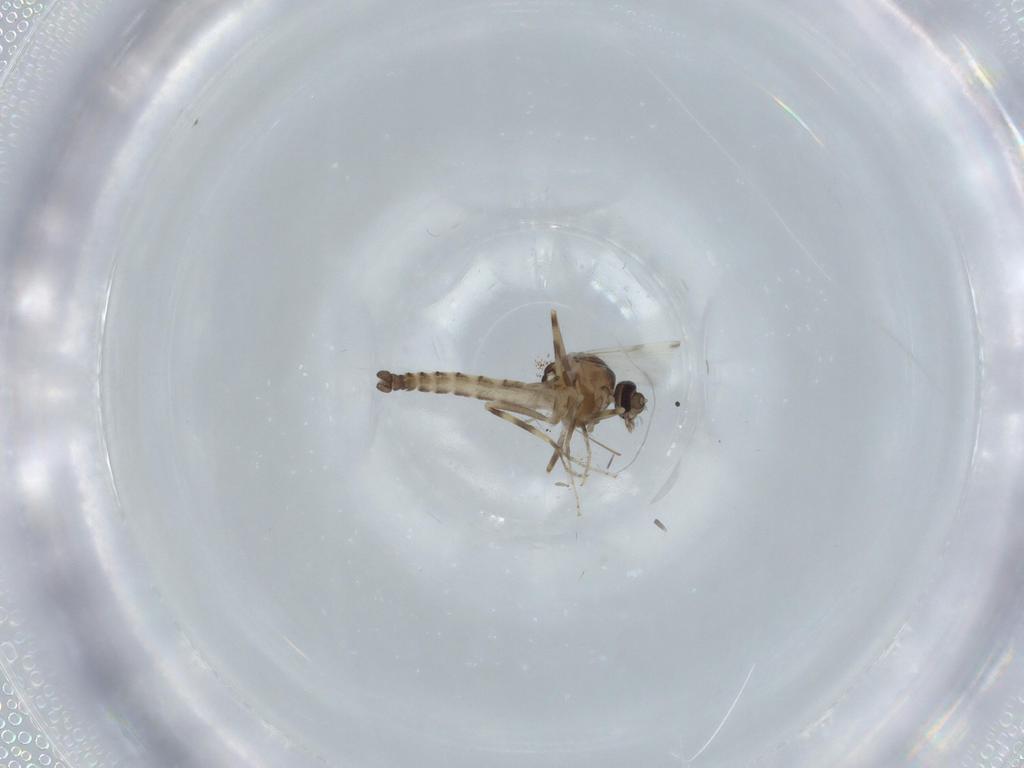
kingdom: Animalia
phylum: Arthropoda
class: Insecta
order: Diptera
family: Ceratopogonidae
